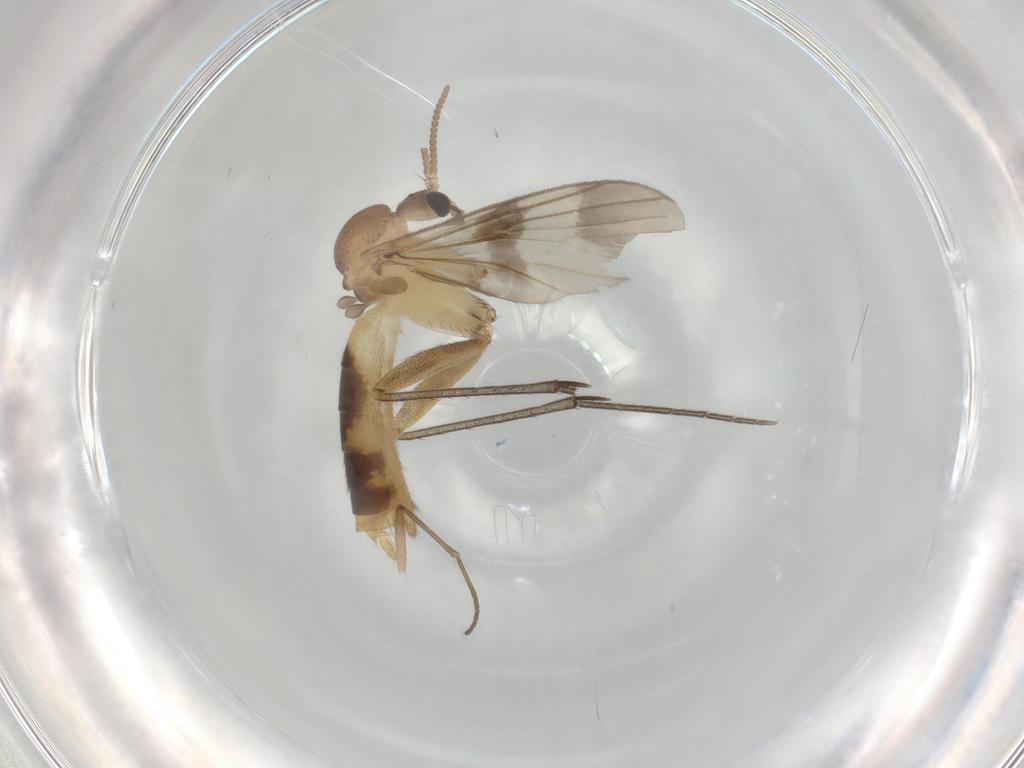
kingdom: Animalia
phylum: Arthropoda
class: Insecta
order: Diptera
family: Mycetophilidae
